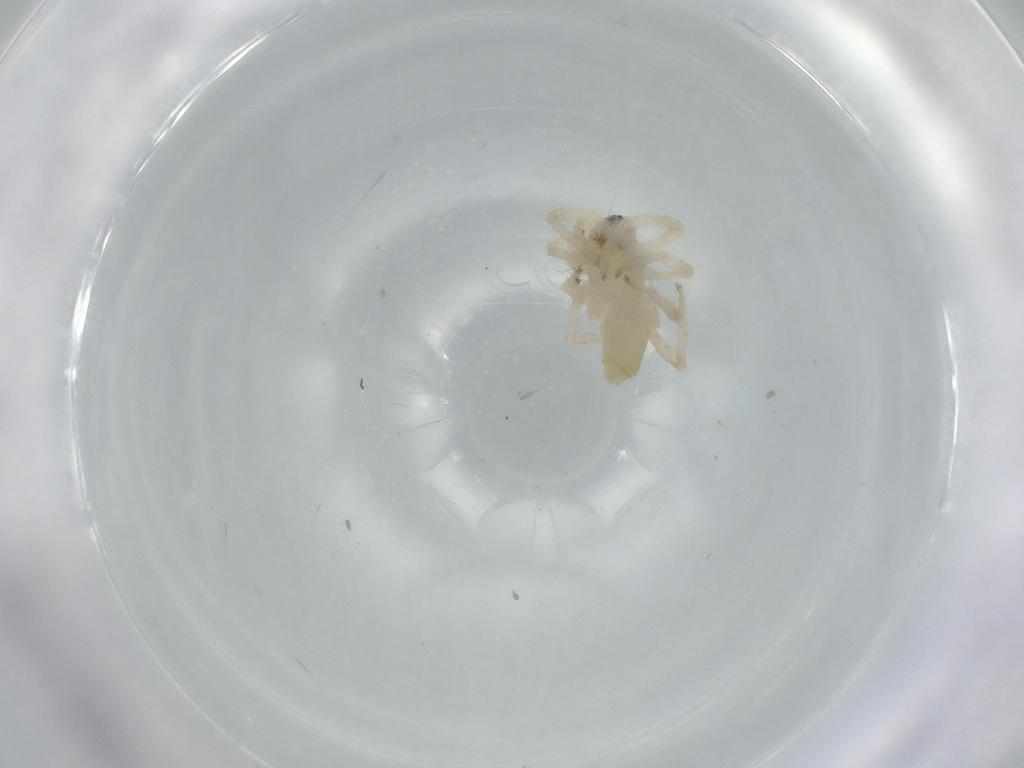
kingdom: Animalia
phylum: Arthropoda
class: Arachnida
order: Araneae
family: Anyphaenidae
